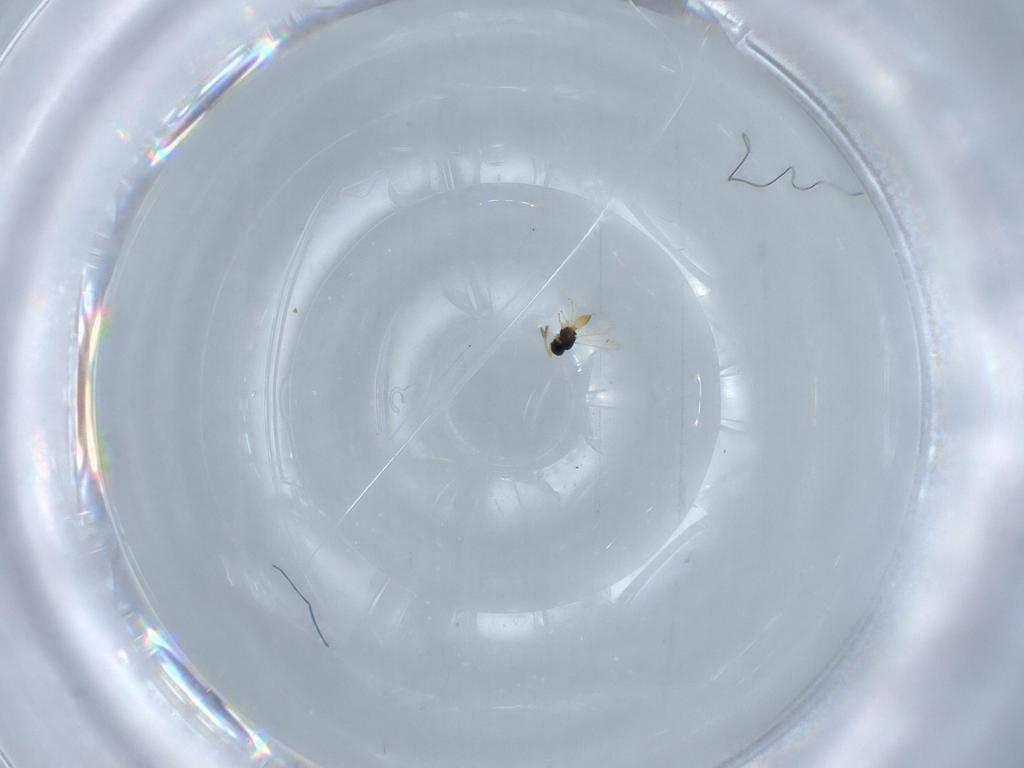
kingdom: Animalia
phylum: Arthropoda
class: Insecta
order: Hymenoptera
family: Scelionidae
